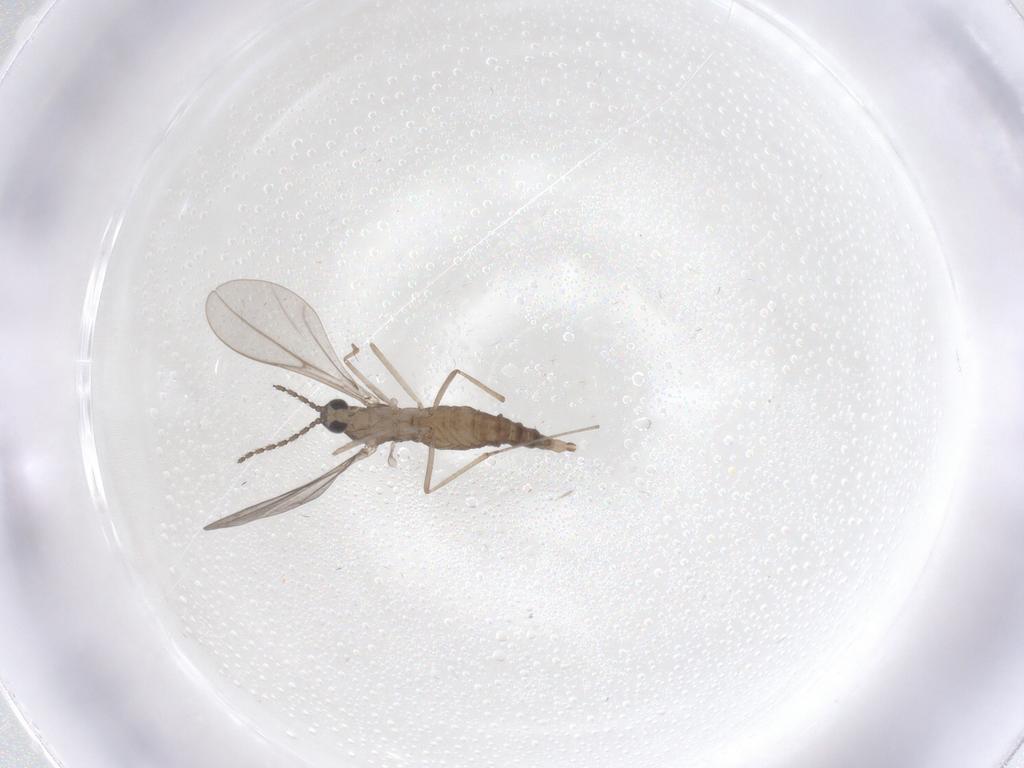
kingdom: Animalia
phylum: Arthropoda
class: Insecta
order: Diptera
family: Cecidomyiidae
